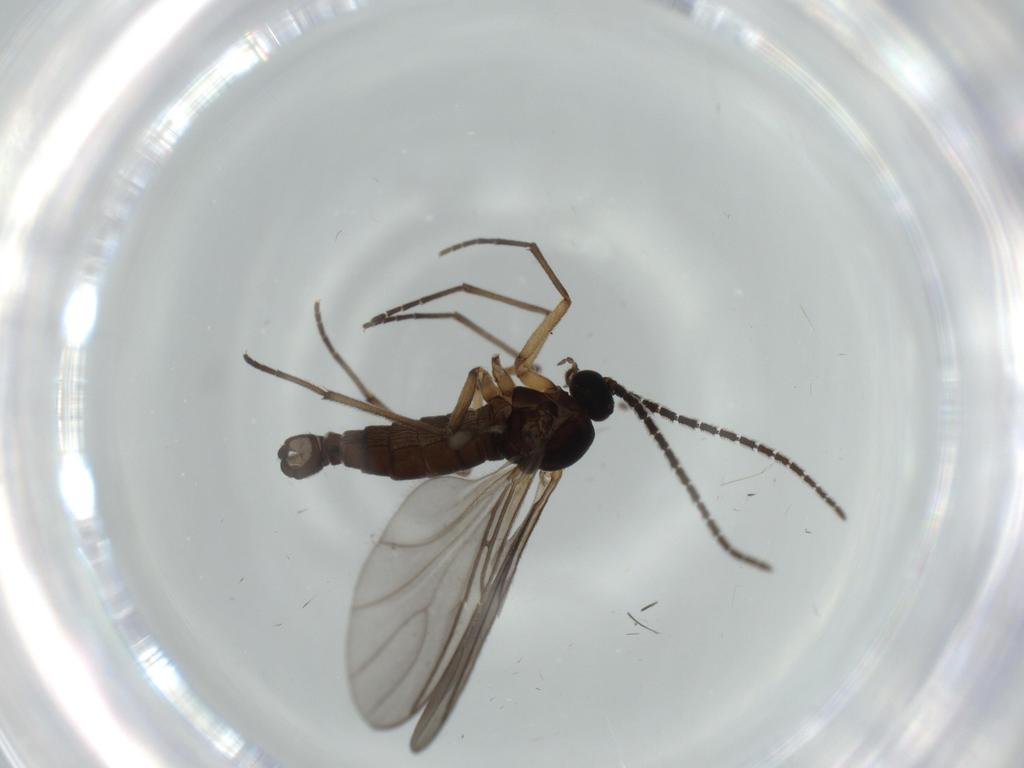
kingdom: Animalia
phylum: Arthropoda
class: Insecta
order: Diptera
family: Sciaridae
